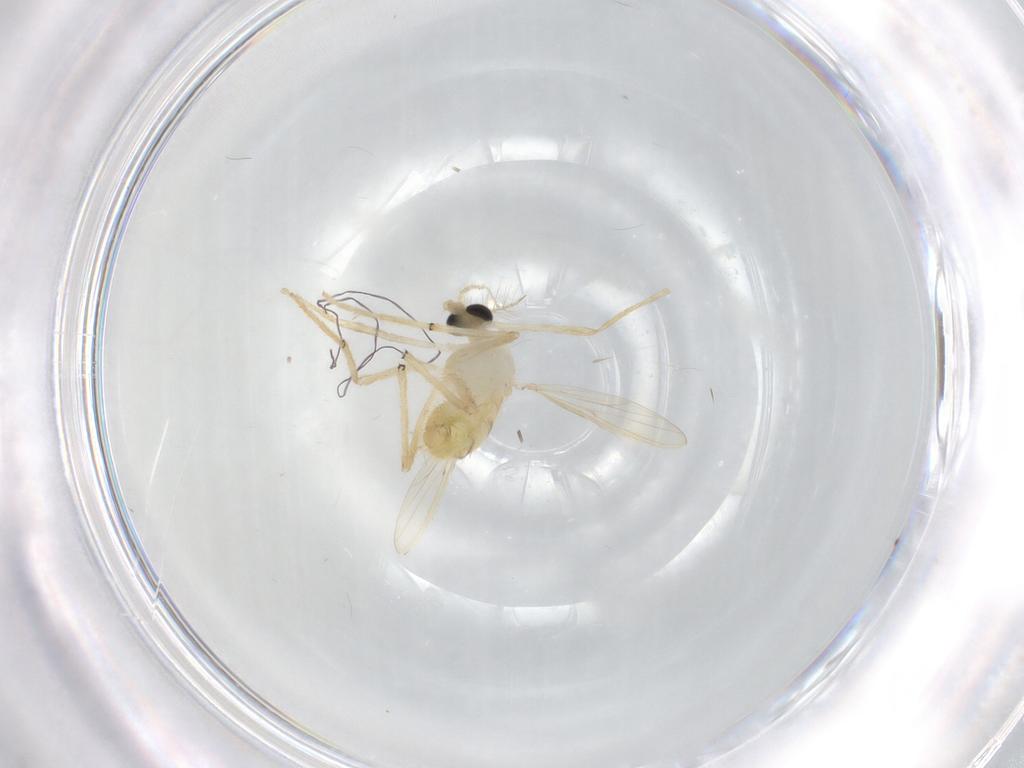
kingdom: Animalia
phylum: Arthropoda
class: Insecta
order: Diptera
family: Chironomidae
